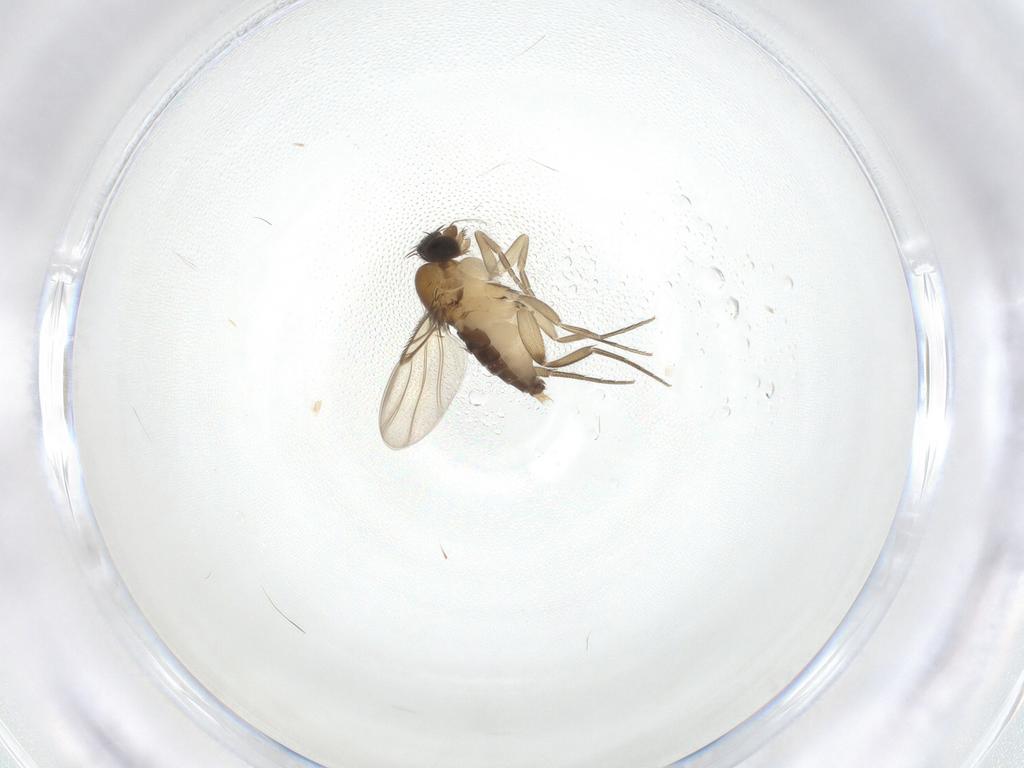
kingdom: Animalia
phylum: Arthropoda
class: Insecta
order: Diptera
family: Phoridae
